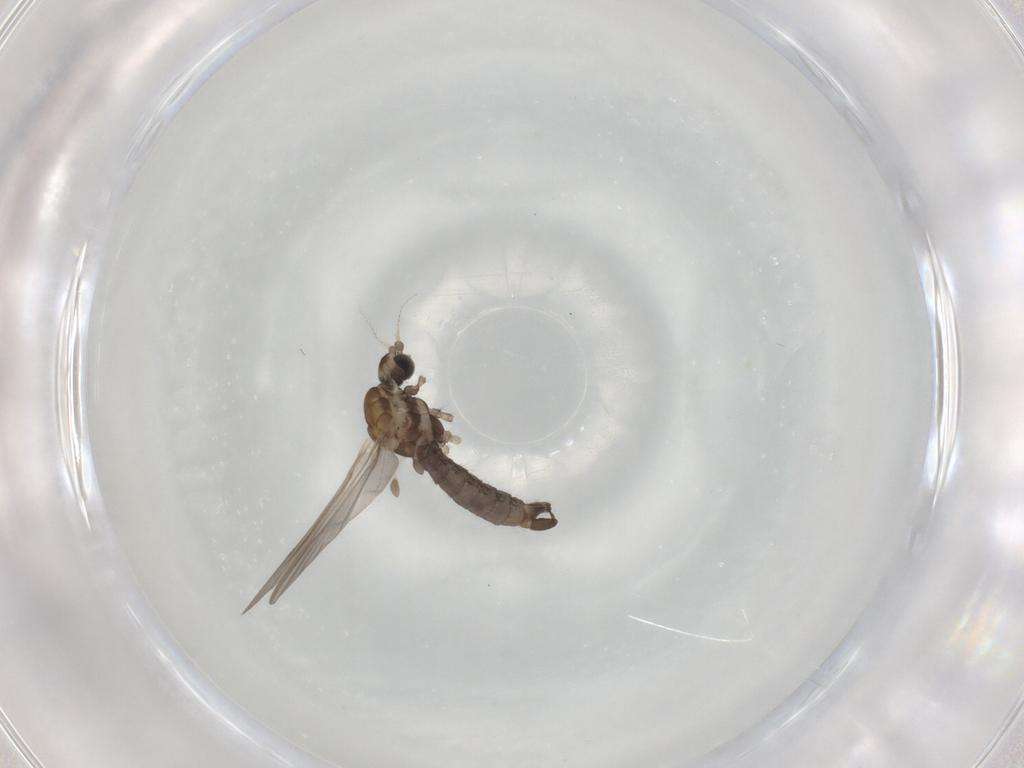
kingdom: Animalia
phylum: Arthropoda
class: Insecta
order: Diptera
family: Limoniidae
